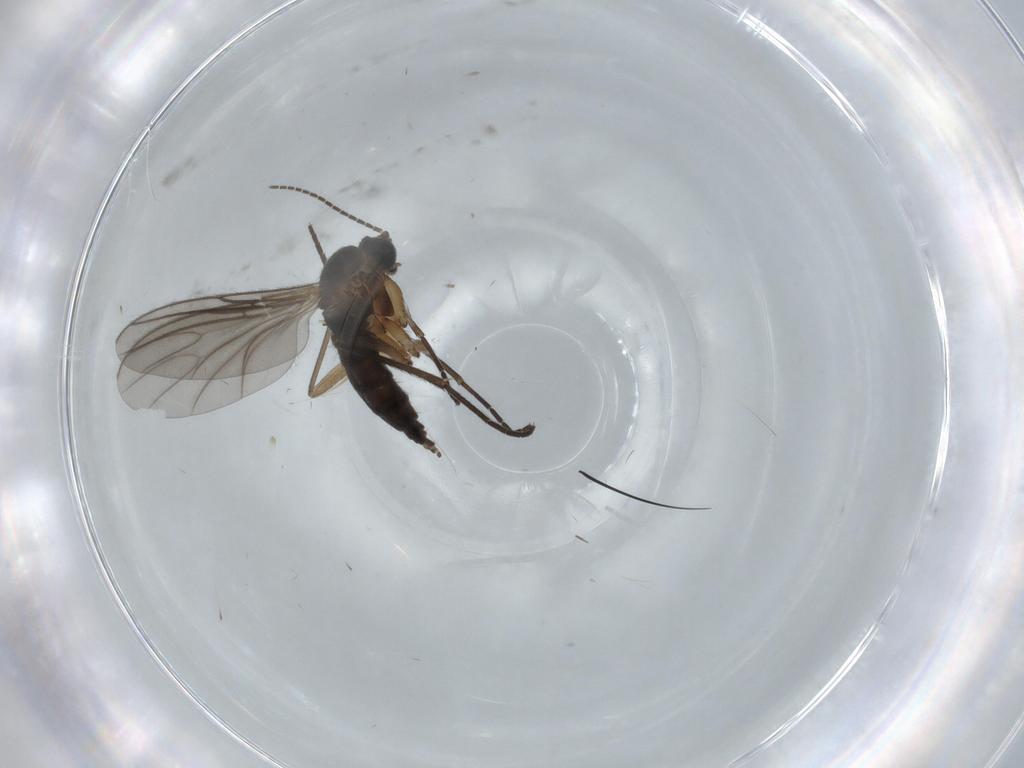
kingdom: Animalia
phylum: Arthropoda
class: Insecta
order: Diptera
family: Sciaridae
